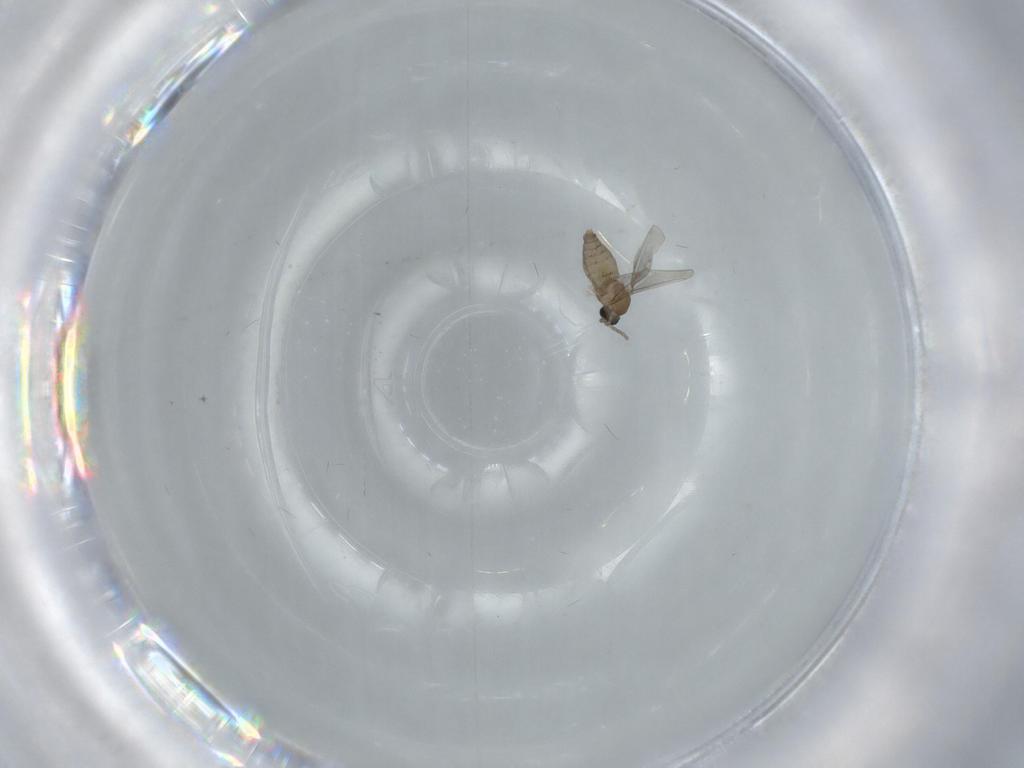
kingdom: Animalia
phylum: Arthropoda
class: Insecta
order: Diptera
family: Cecidomyiidae
